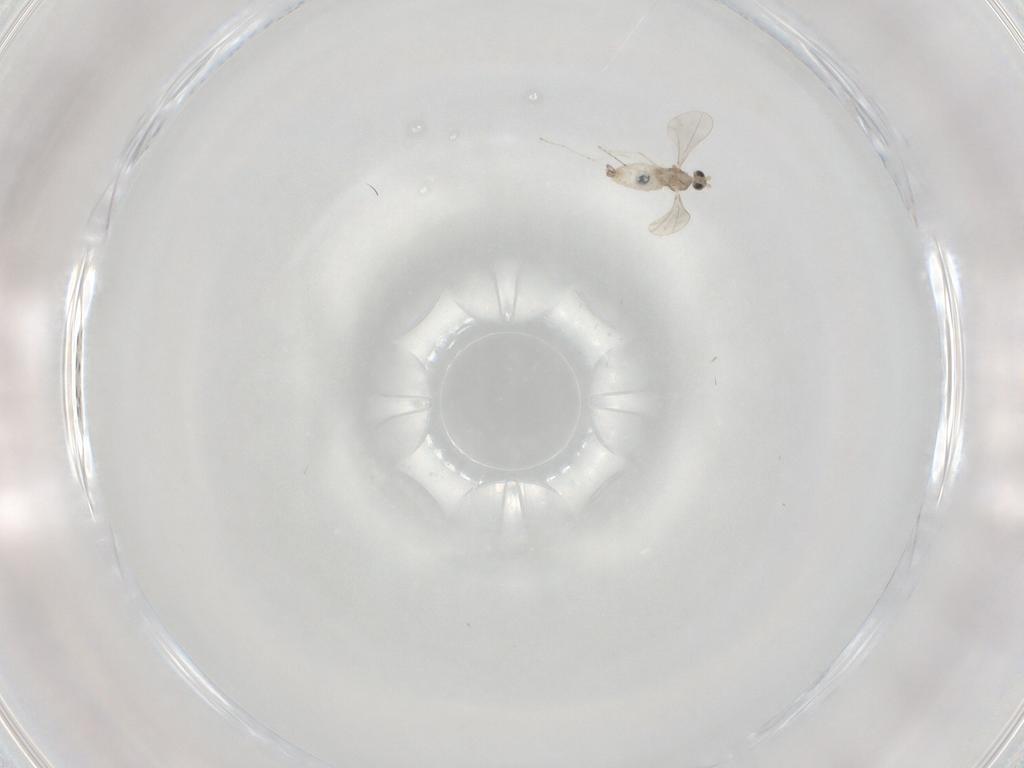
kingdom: Animalia
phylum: Arthropoda
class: Insecta
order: Diptera
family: Cecidomyiidae
